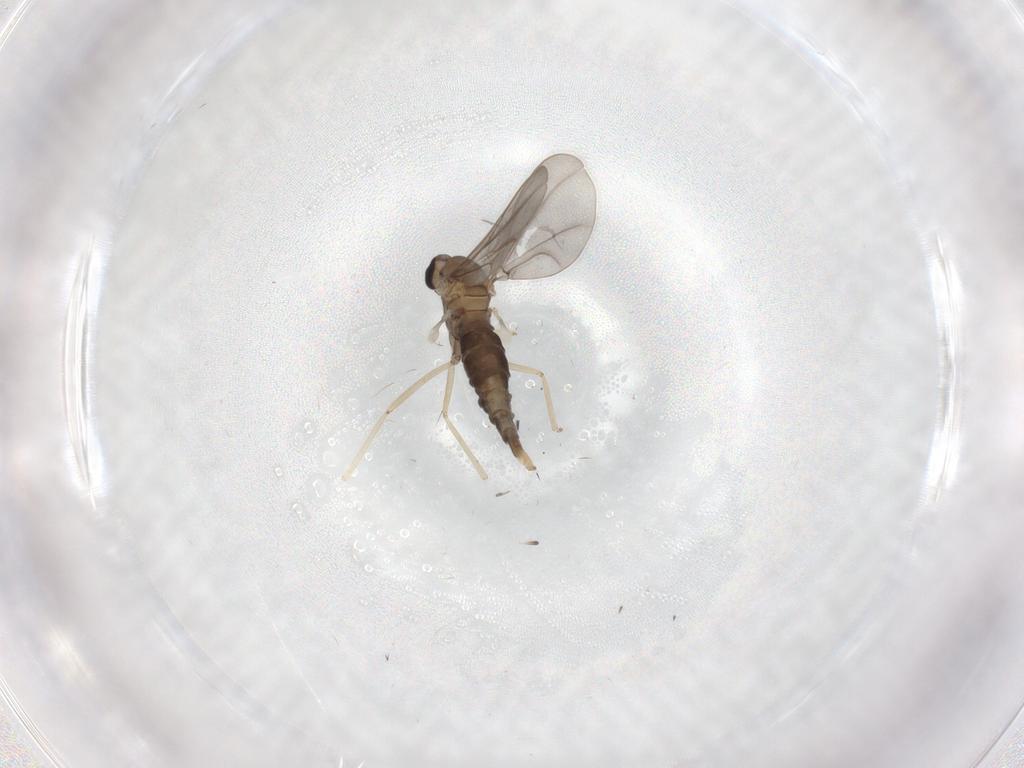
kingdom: Animalia
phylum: Arthropoda
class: Insecta
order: Diptera
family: Cecidomyiidae
